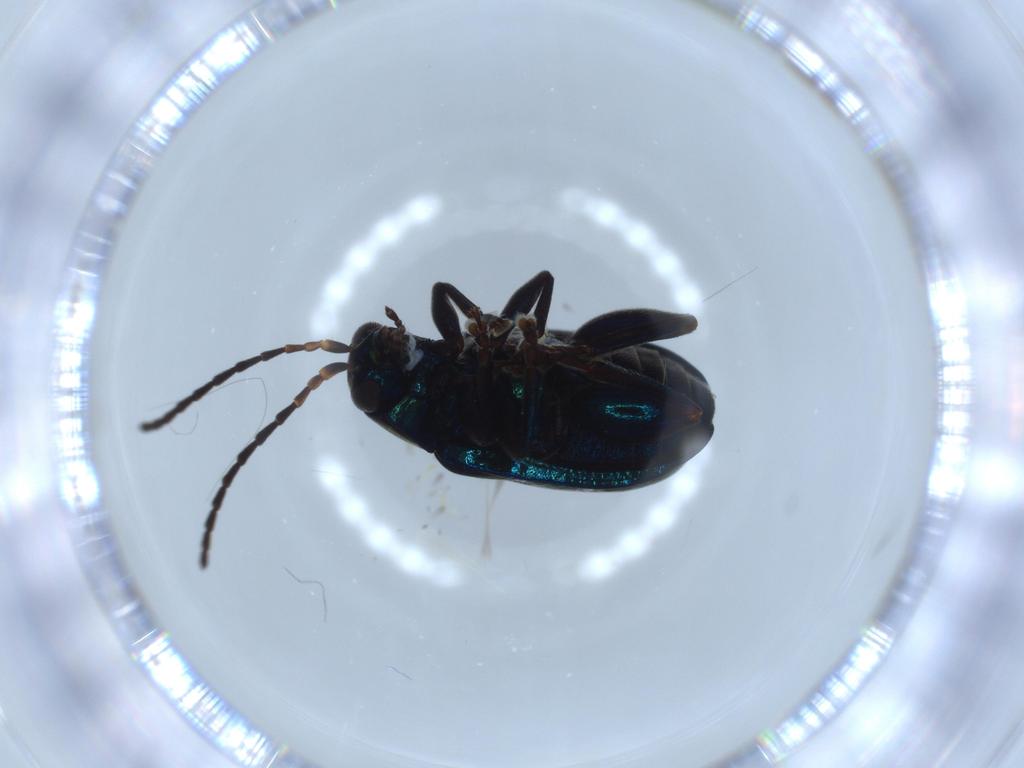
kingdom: Animalia
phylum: Arthropoda
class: Insecta
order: Coleoptera
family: Chrysomelidae
